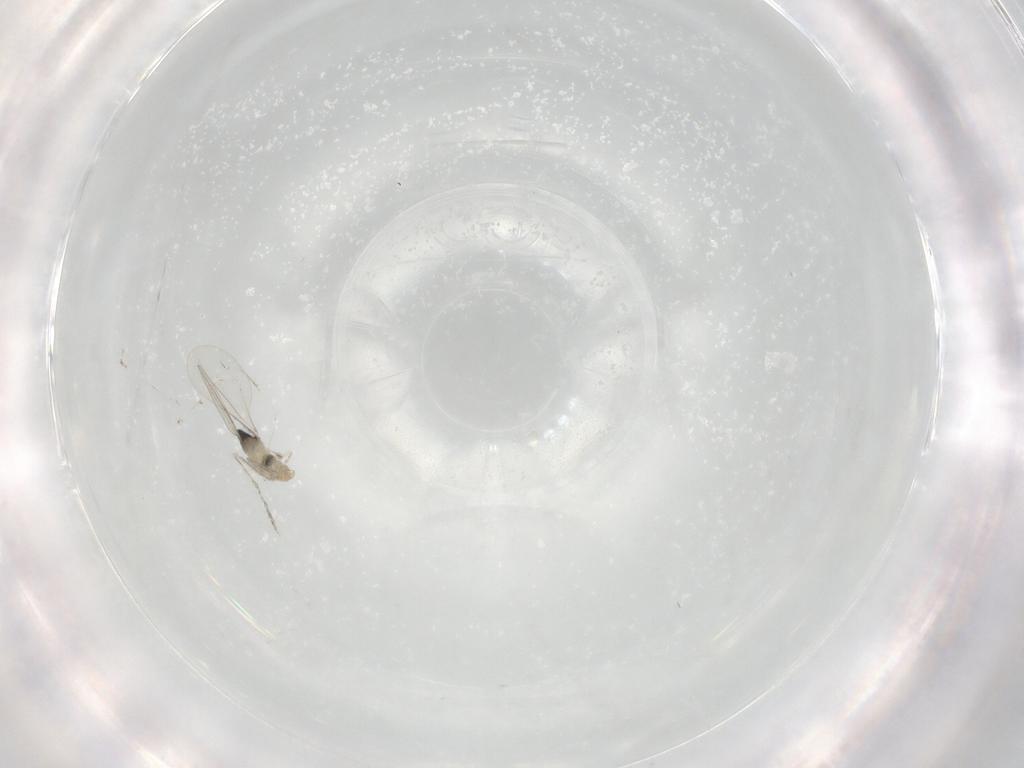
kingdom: Animalia
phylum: Arthropoda
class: Insecta
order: Diptera
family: Cecidomyiidae
